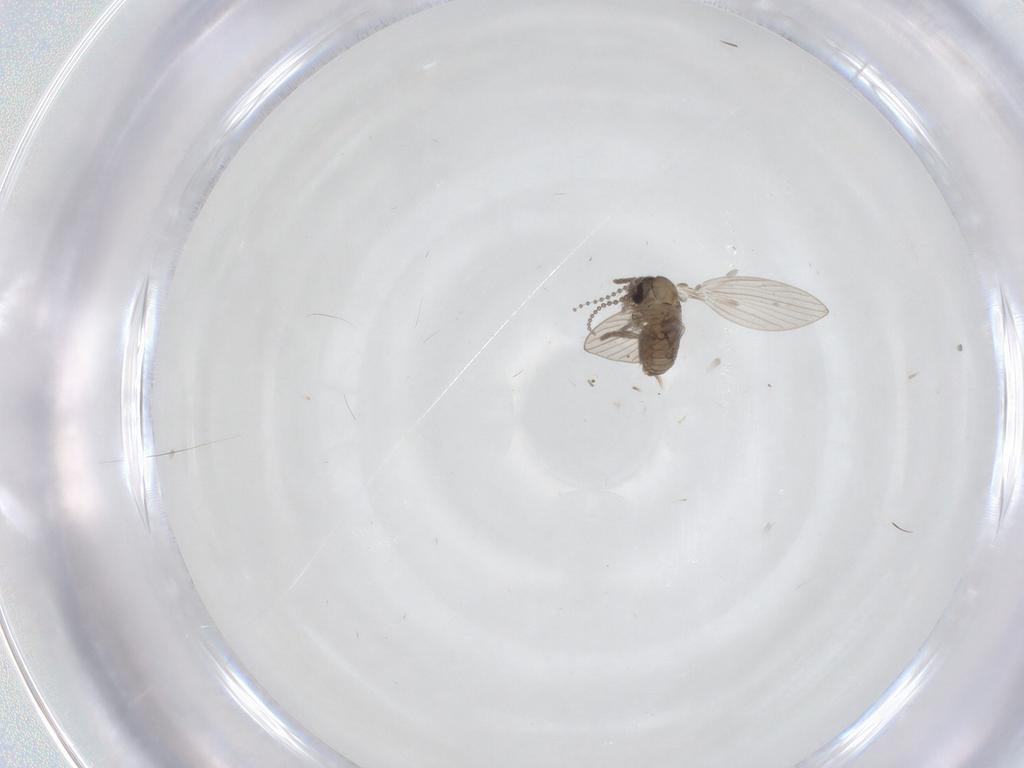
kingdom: Animalia
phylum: Arthropoda
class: Insecta
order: Diptera
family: Psychodidae
